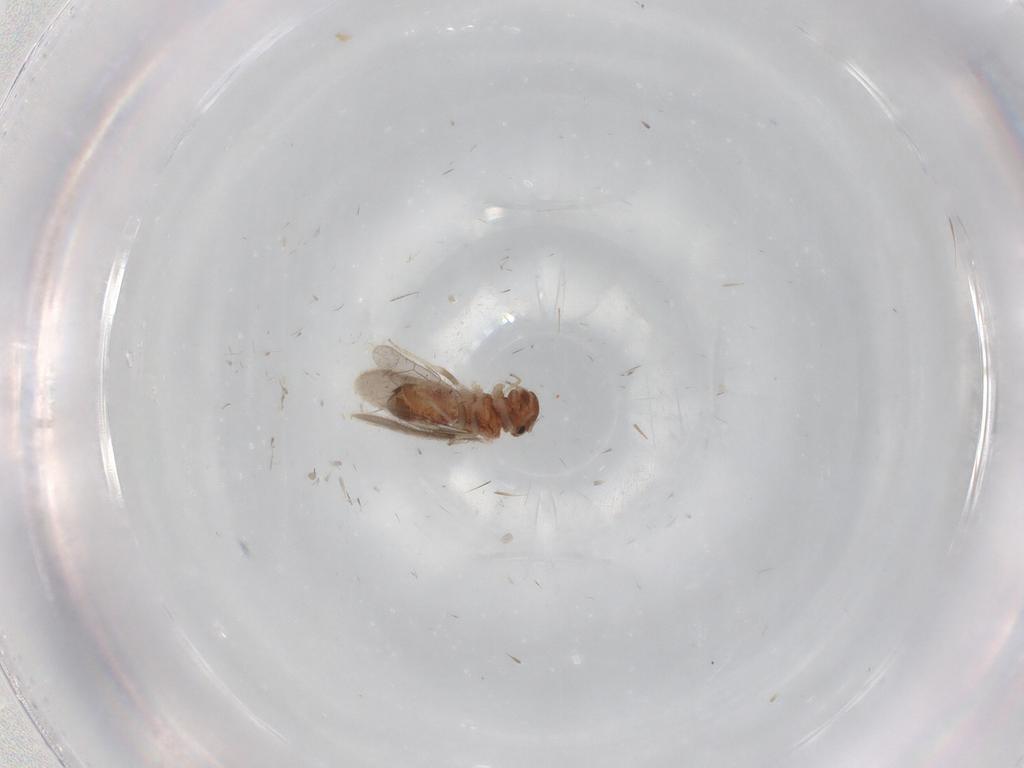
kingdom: Animalia
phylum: Arthropoda
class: Insecta
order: Psocodea
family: Archipsocidae
